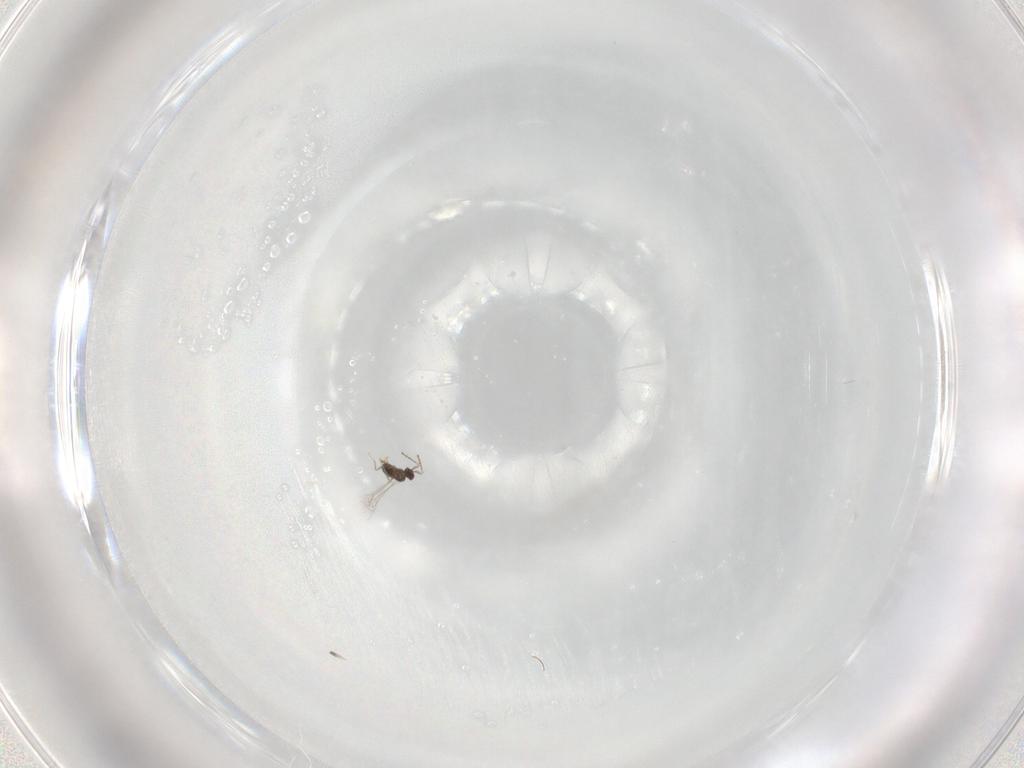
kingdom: Animalia
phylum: Arthropoda
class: Insecta
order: Hymenoptera
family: Mymaridae
